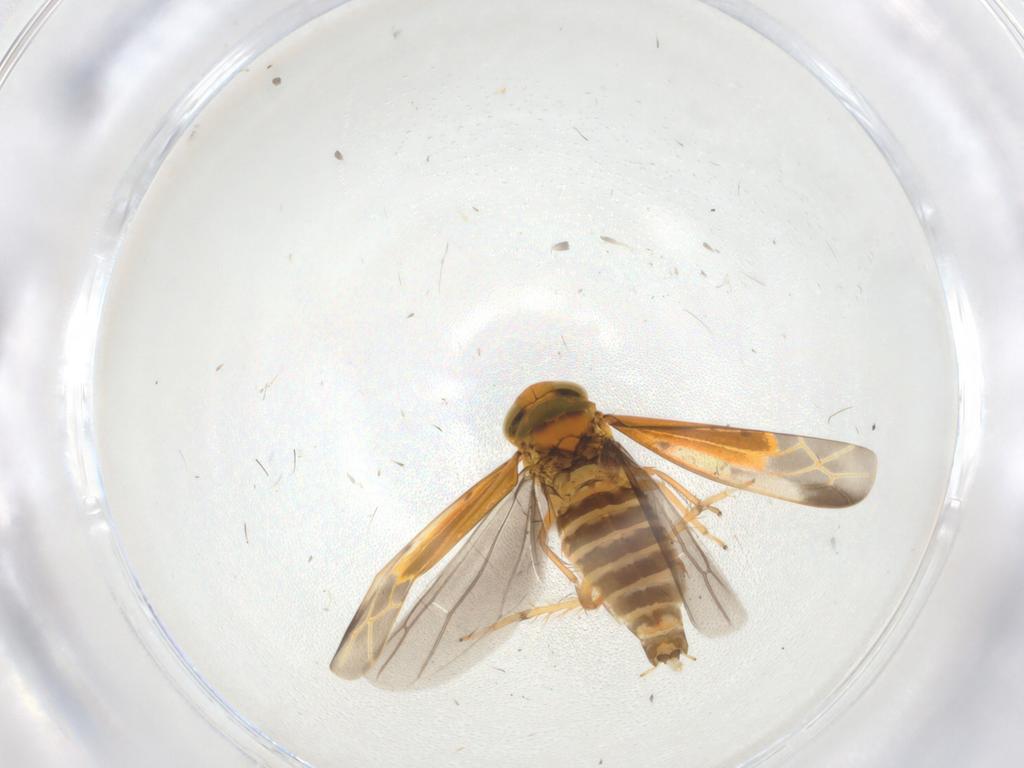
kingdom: Animalia
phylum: Arthropoda
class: Insecta
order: Hemiptera
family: Cicadellidae
